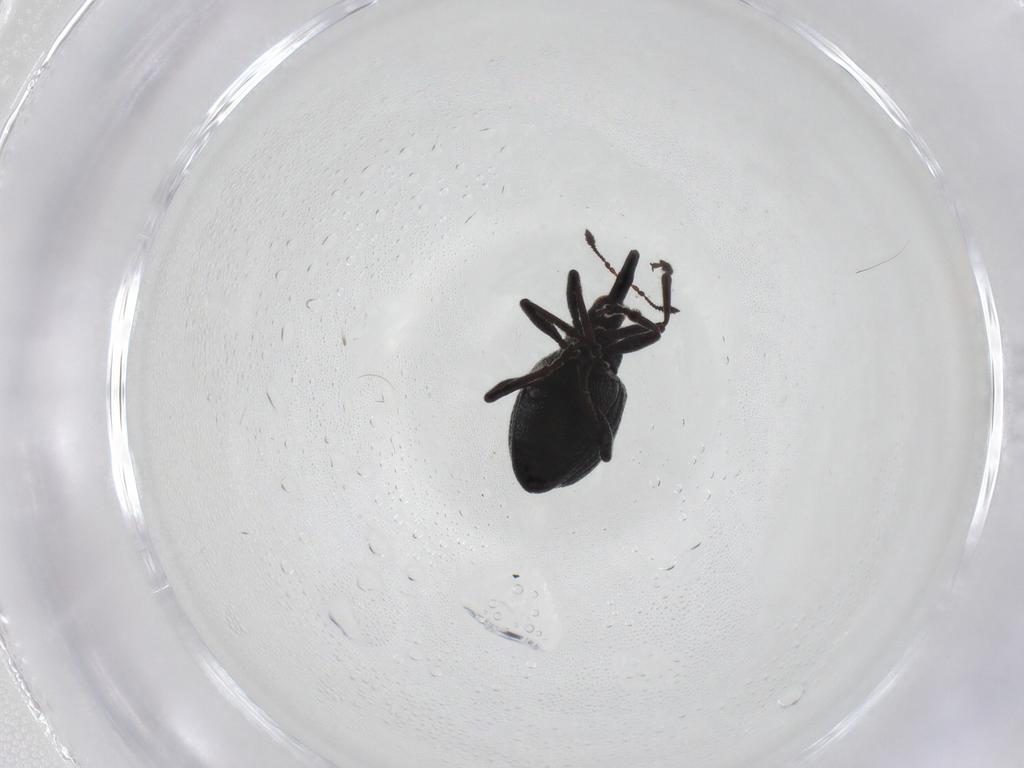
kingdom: Animalia
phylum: Arthropoda
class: Insecta
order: Coleoptera
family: Brentidae
